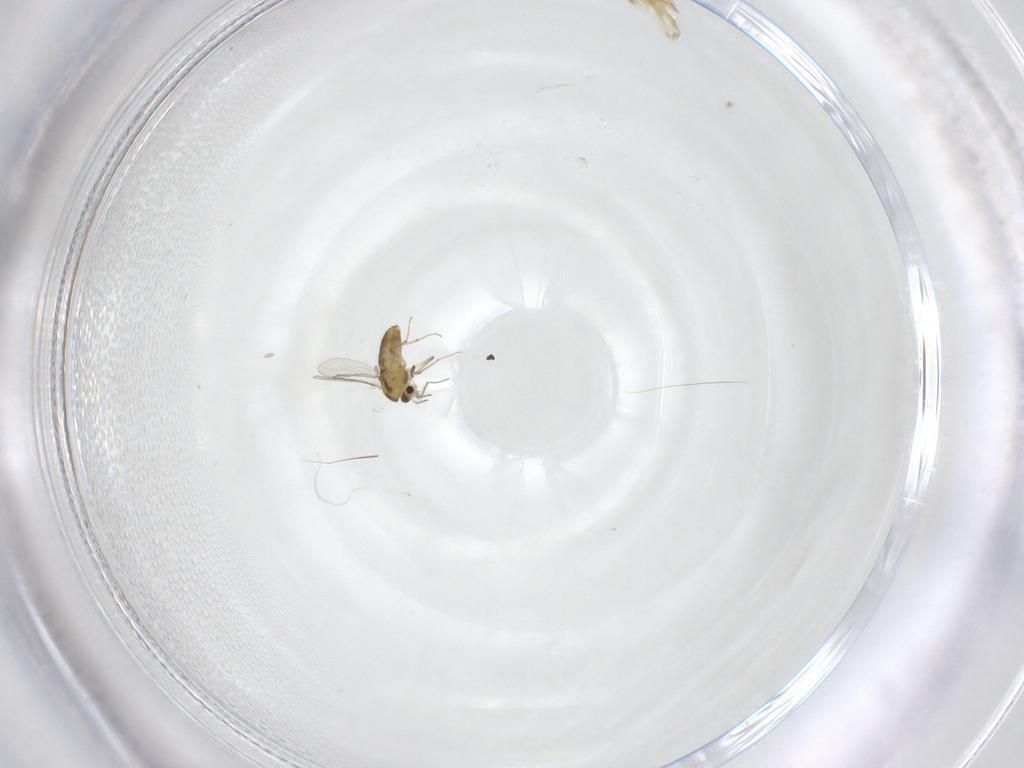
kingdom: Animalia
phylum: Arthropoda
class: Insecta
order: Diptera
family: Chironomidae
